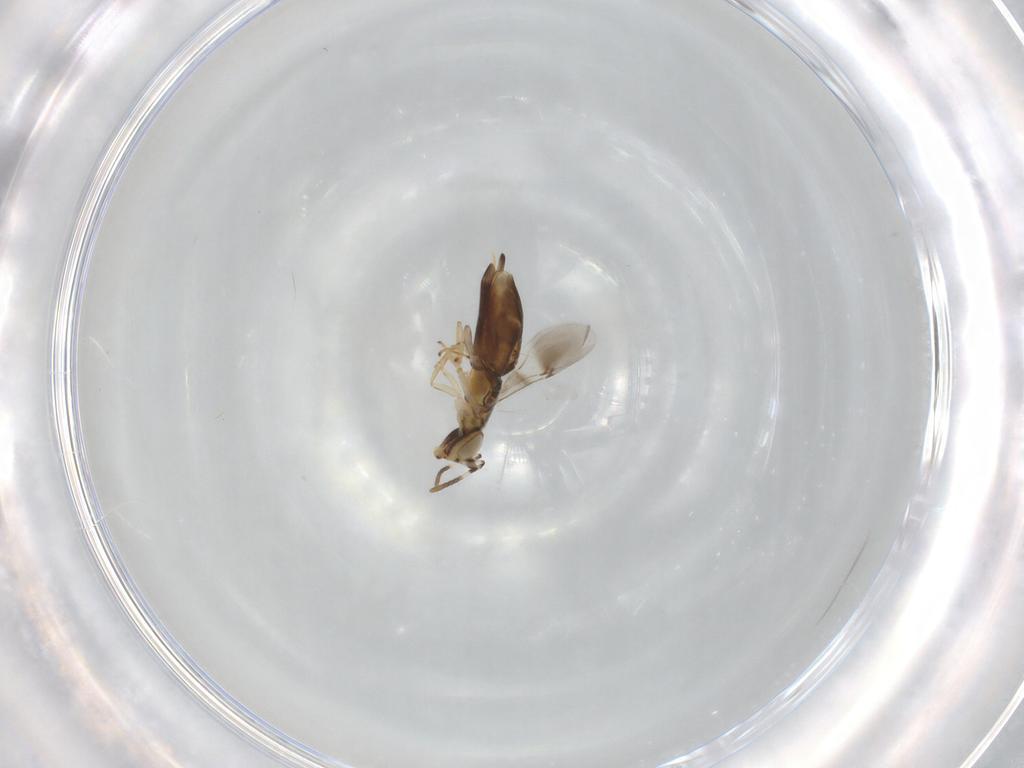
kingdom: Animalia
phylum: Arthropoda
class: Insecta
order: Hymenoptera
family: Encyrtidae
